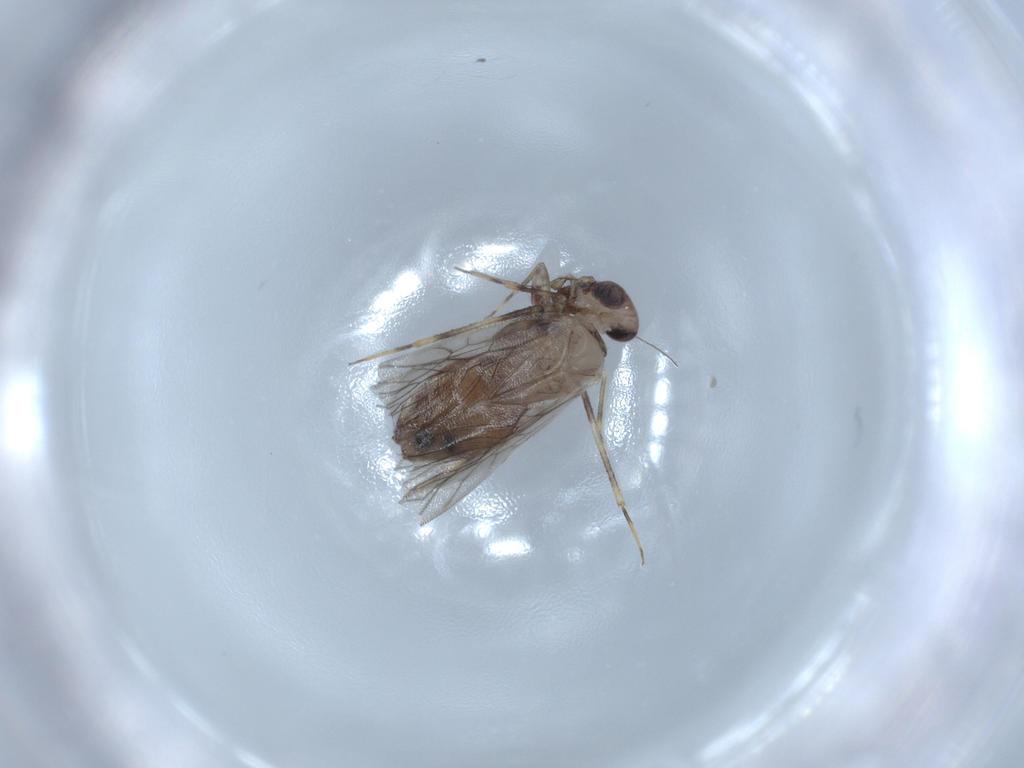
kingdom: Animalia
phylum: Arthropoda
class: Insecta
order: Psocodea
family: Lepidopsocidae
